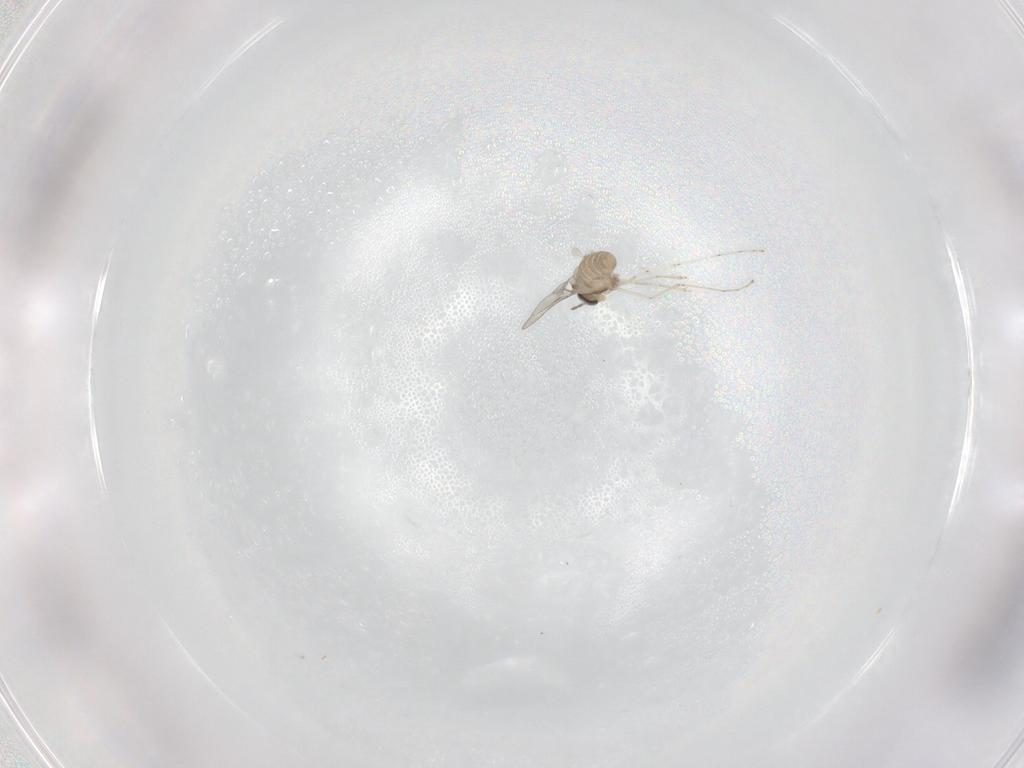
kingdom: Animalia
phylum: Arthropoda
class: Insecta
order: Diptera
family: Cecidomyiidae
